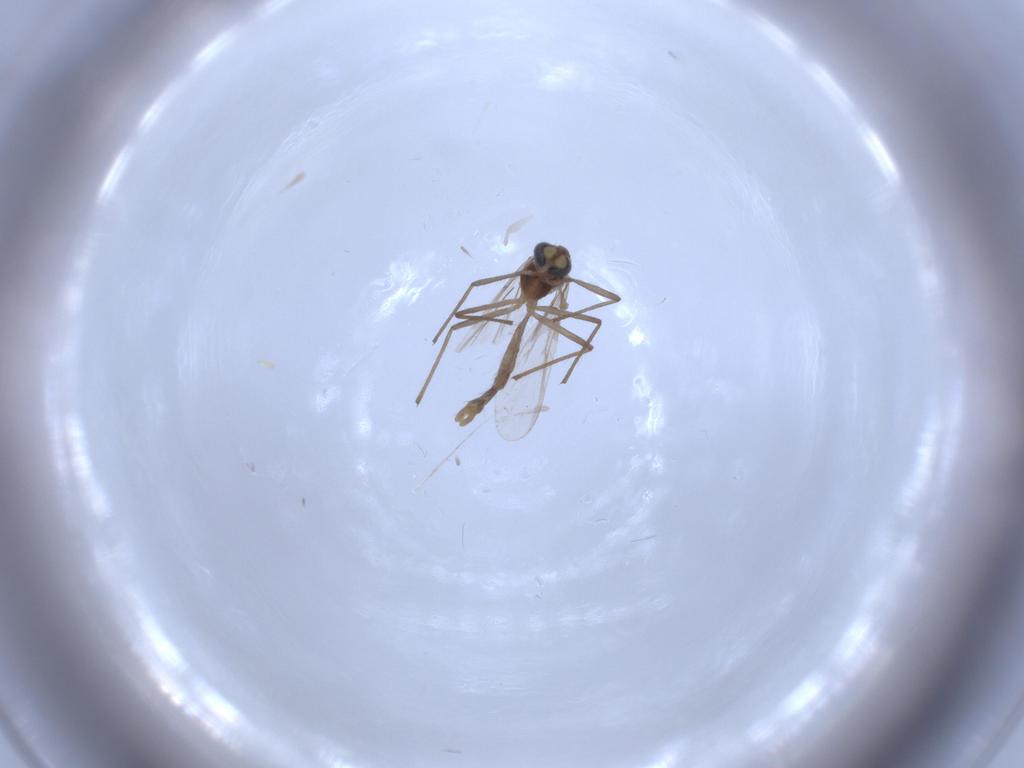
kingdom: Animalia
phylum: Arthropoda
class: Insecta
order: Diptera
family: Chironomidae
